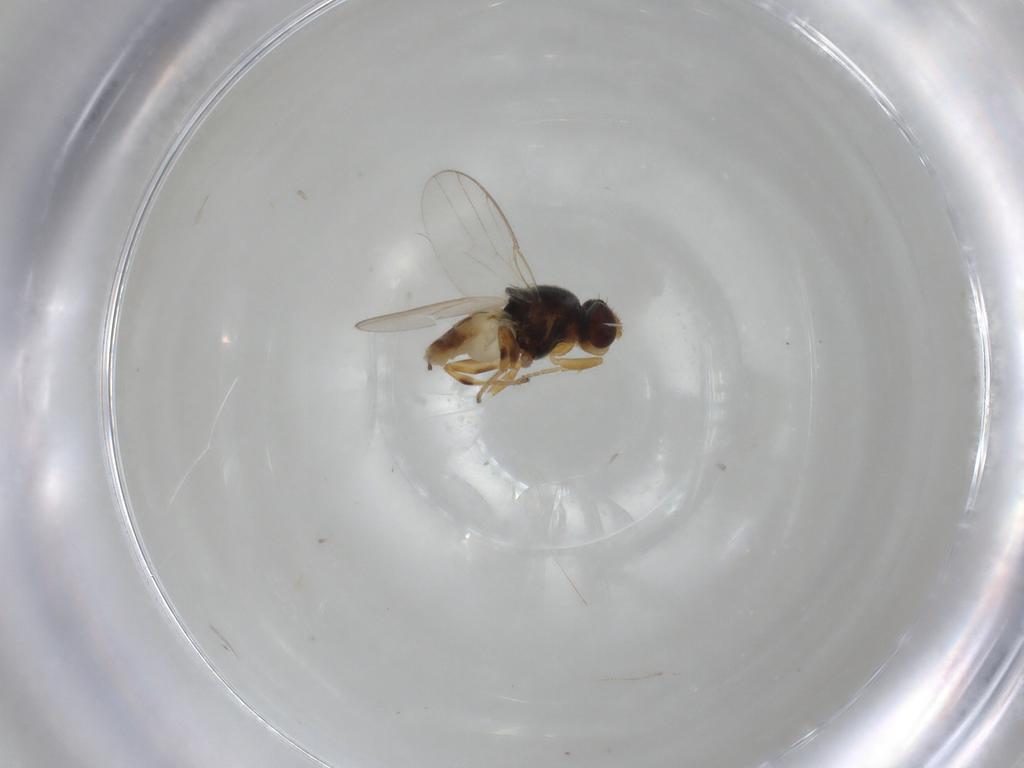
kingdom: Animalia
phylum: Arthropoda
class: Insecta
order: Diptera
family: Chloropidae
